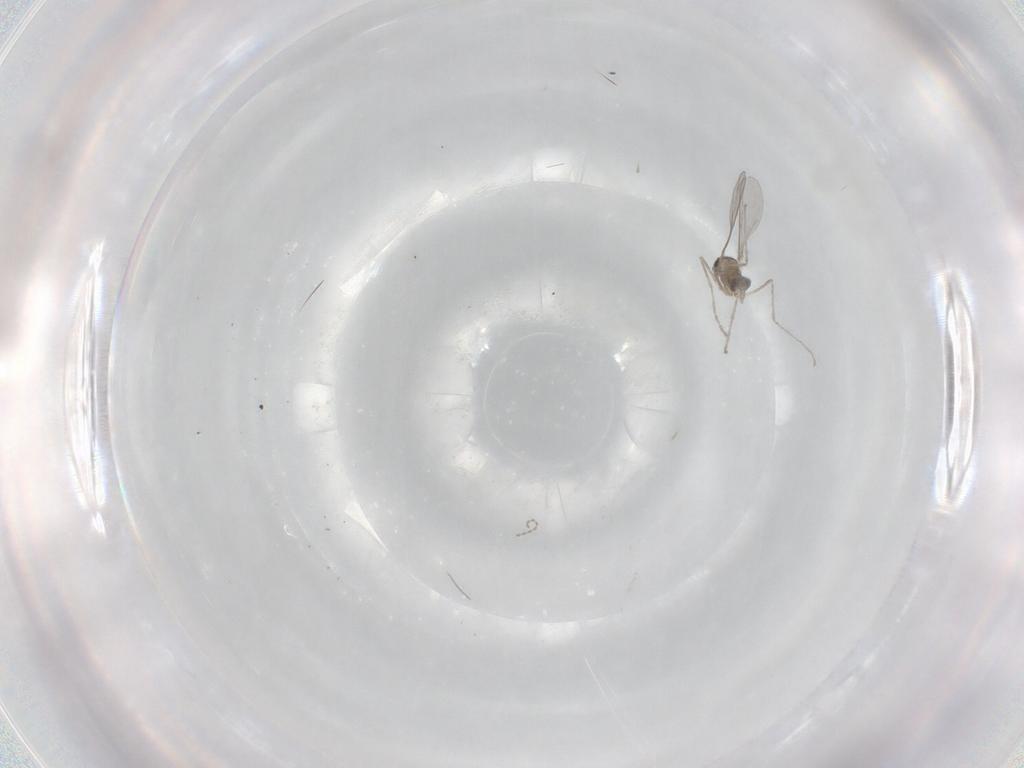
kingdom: Animalia
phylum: Arthropoda
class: Insecta
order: Diptera
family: Cecidomyiidae
